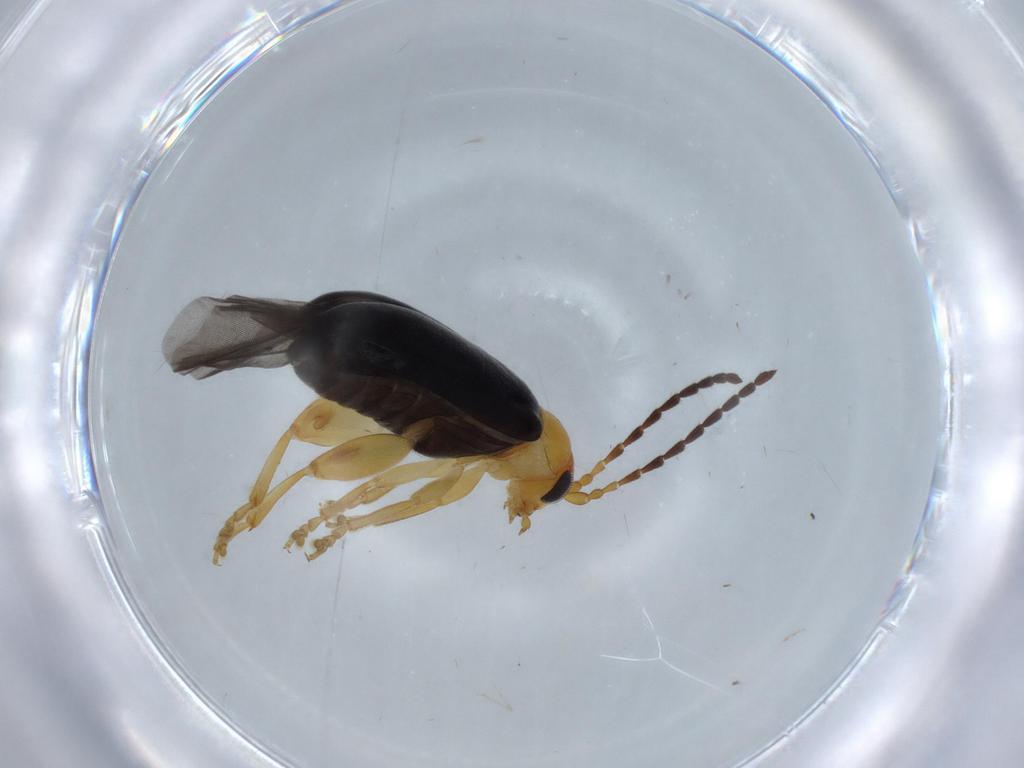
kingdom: Animalia
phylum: Arthropoda
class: Insecta
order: Coleoptera
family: Chrysomelidae
